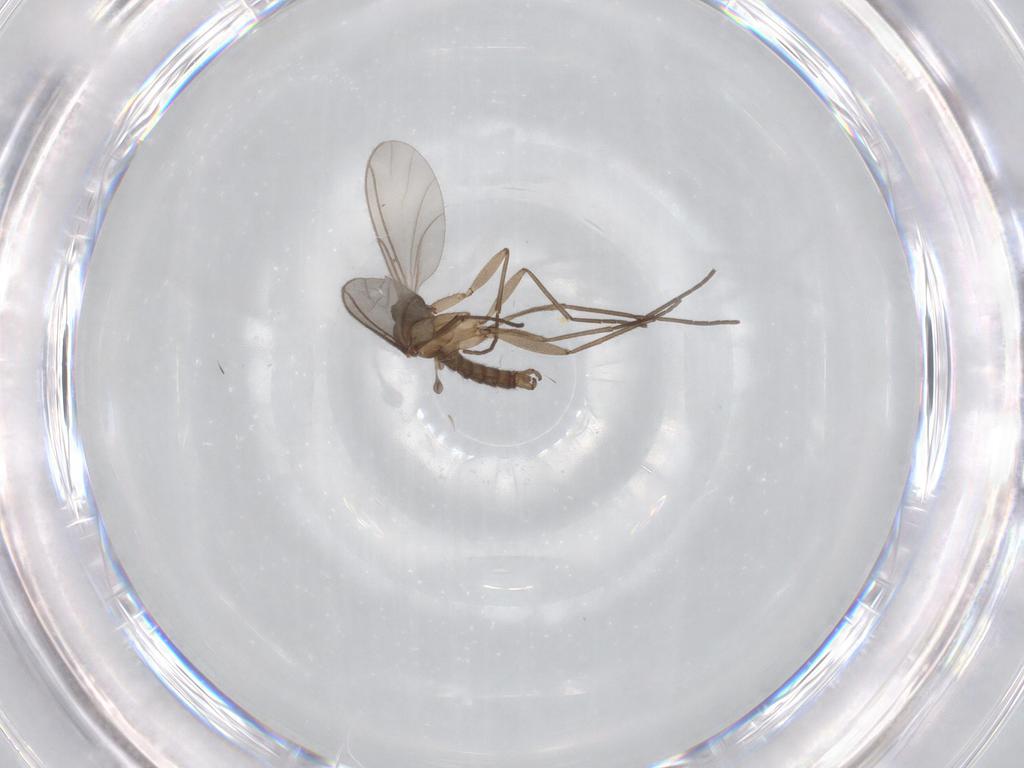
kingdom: Animalia
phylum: Arthropoda
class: Insecta
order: Diptera
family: Sciaridae
